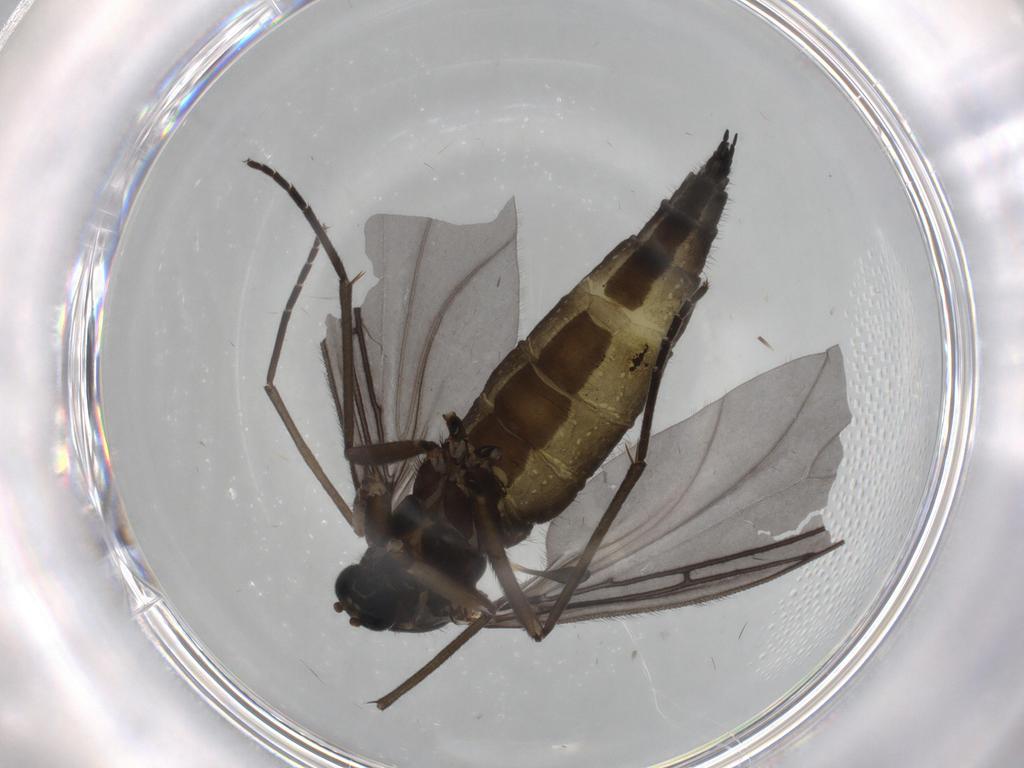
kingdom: Animalia
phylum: Arthropoda
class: Insecta
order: Diptera
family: Sciaridae
